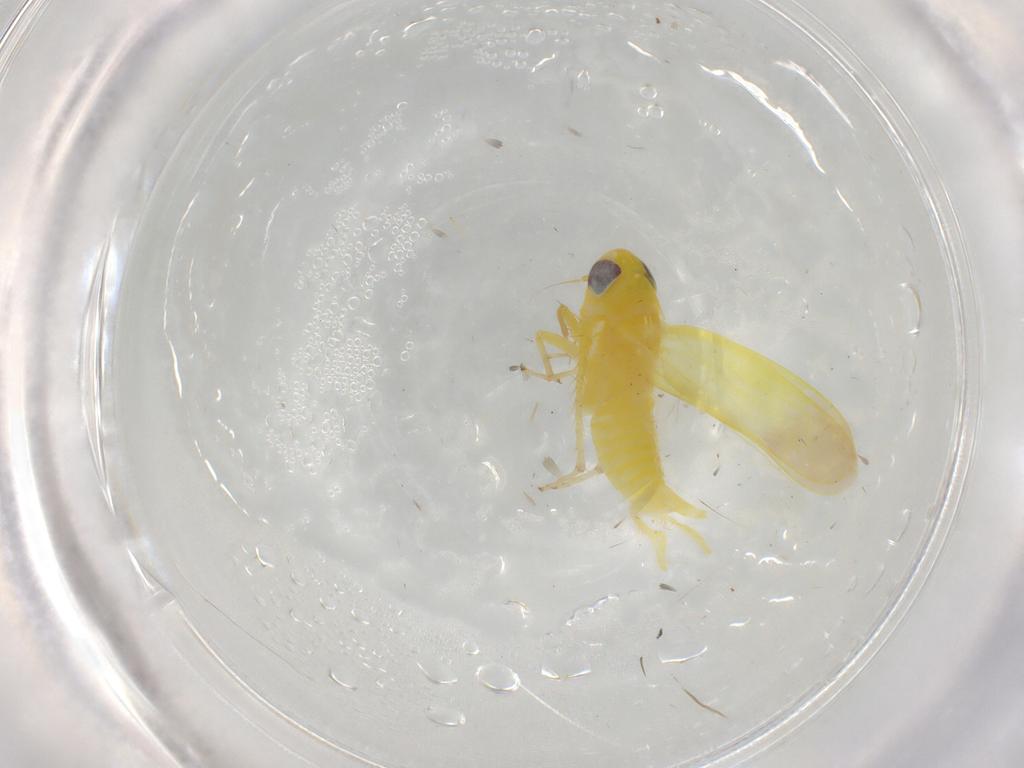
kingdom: Animalia
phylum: Arthropoda
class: Insecta
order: Hemiptera
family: Cicadellidae
